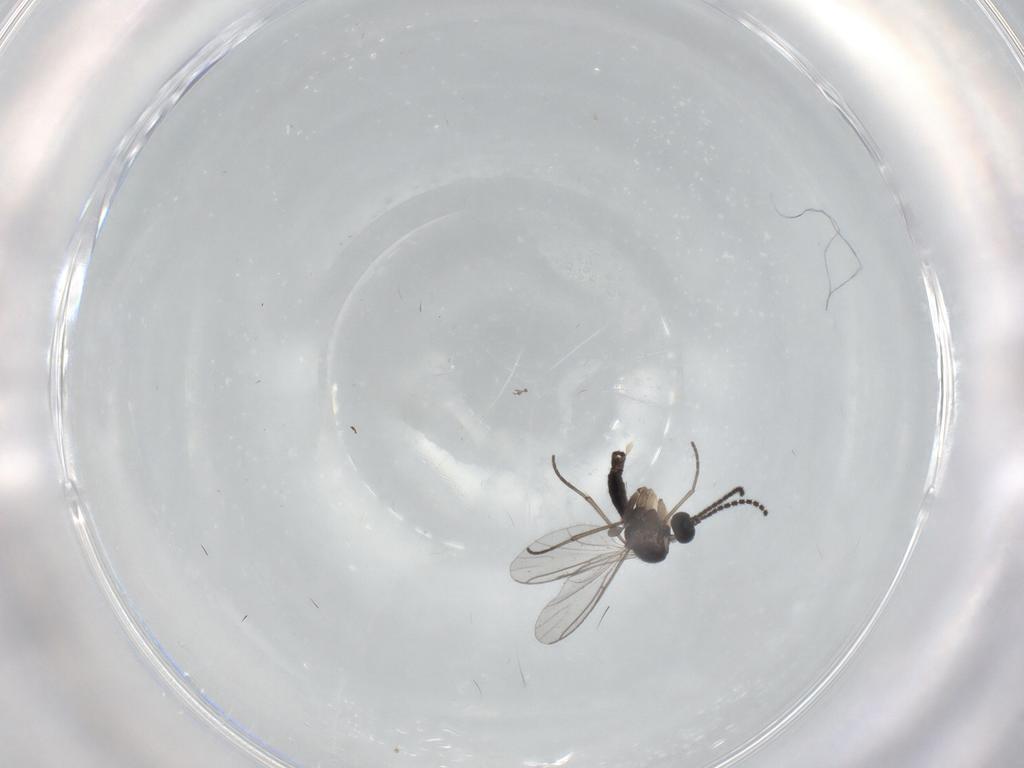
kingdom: Animalia
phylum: Arthropoda
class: Insecta
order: Diptera
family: Sciaridae
